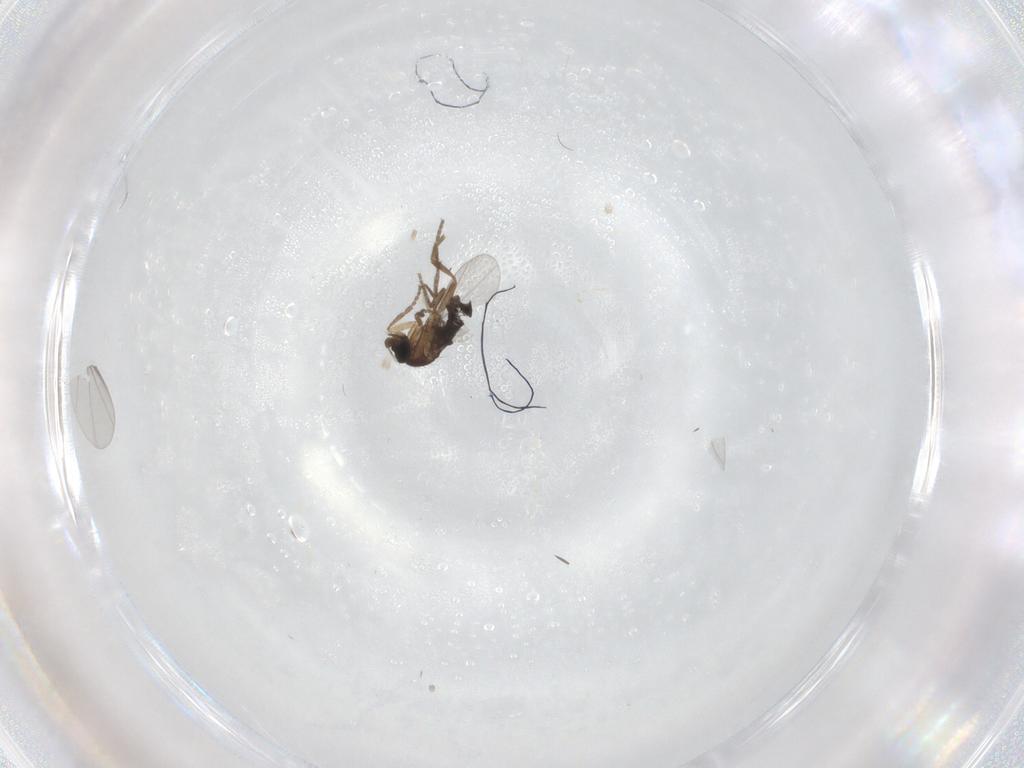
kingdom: Animalia
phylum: Arthropoda
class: Insecta
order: Diptera
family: Phoridae
